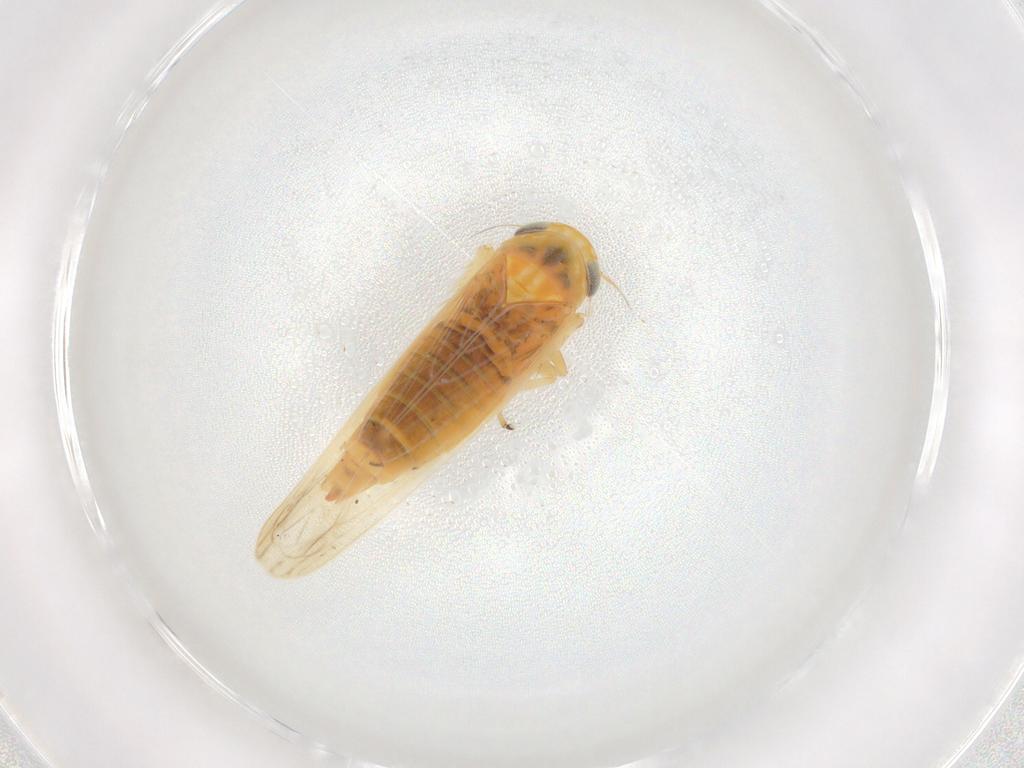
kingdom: Animalia
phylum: Arthropoda
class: Insecta
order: Hemiptera
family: Cicadellidae
